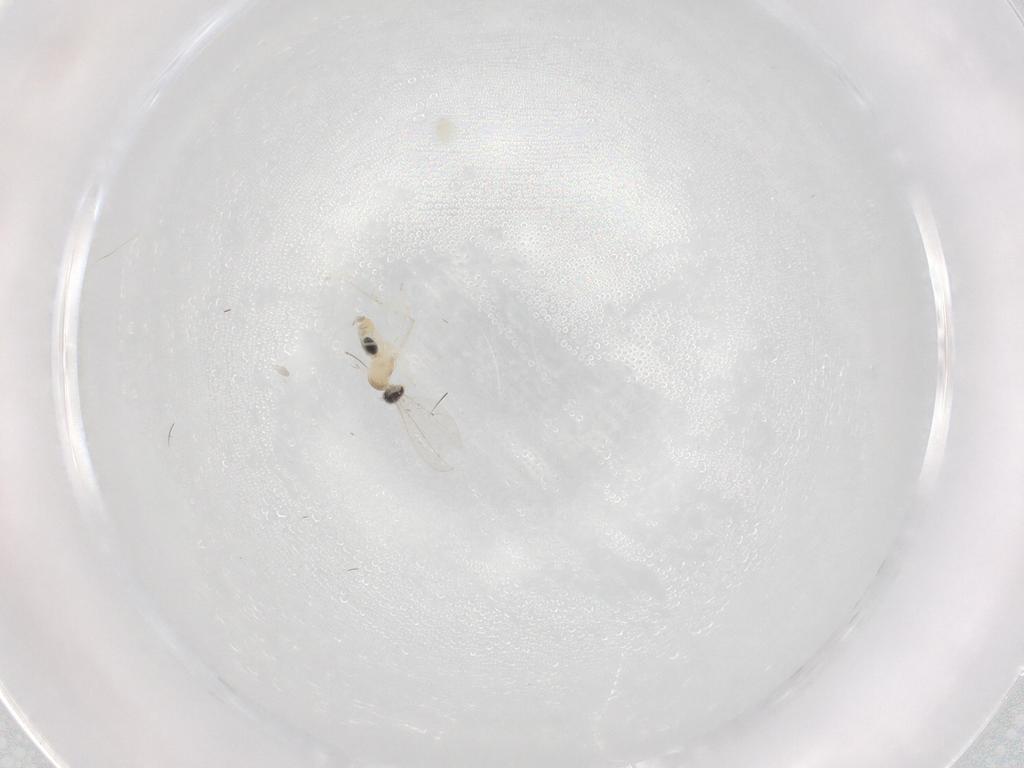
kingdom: Animalia
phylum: Arthropoda
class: Insecta
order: Diptera
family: Cecidomyiidae
